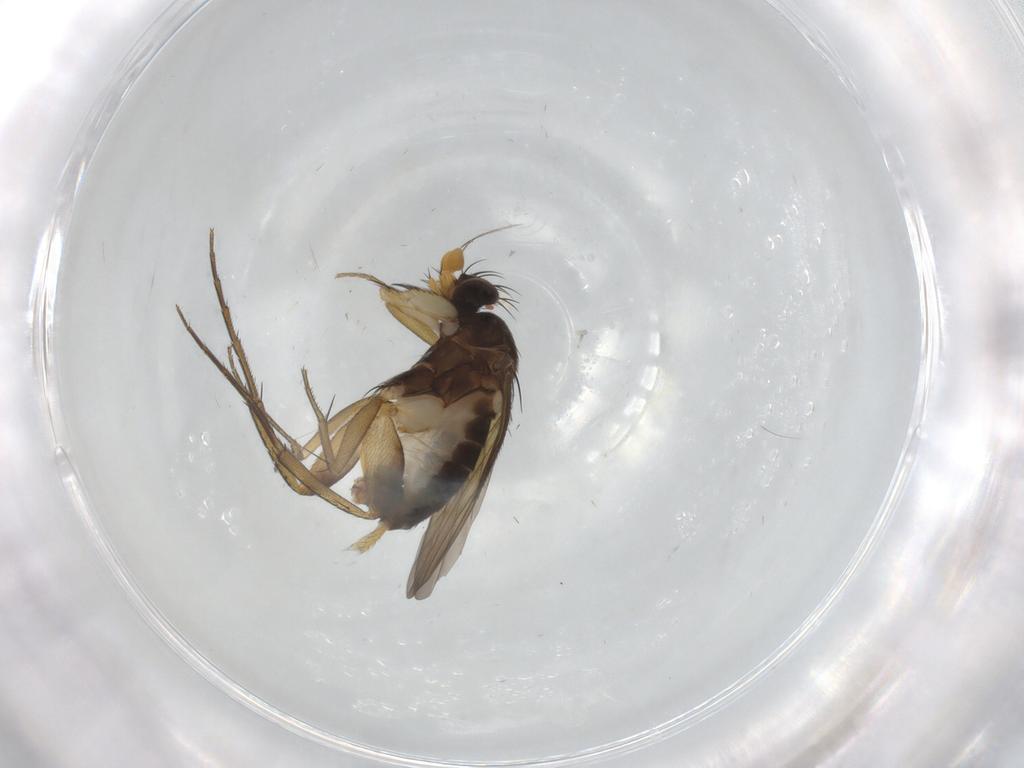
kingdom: Animalia
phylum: Arthropoda
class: Insecta
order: Diptera
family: Phoridae
